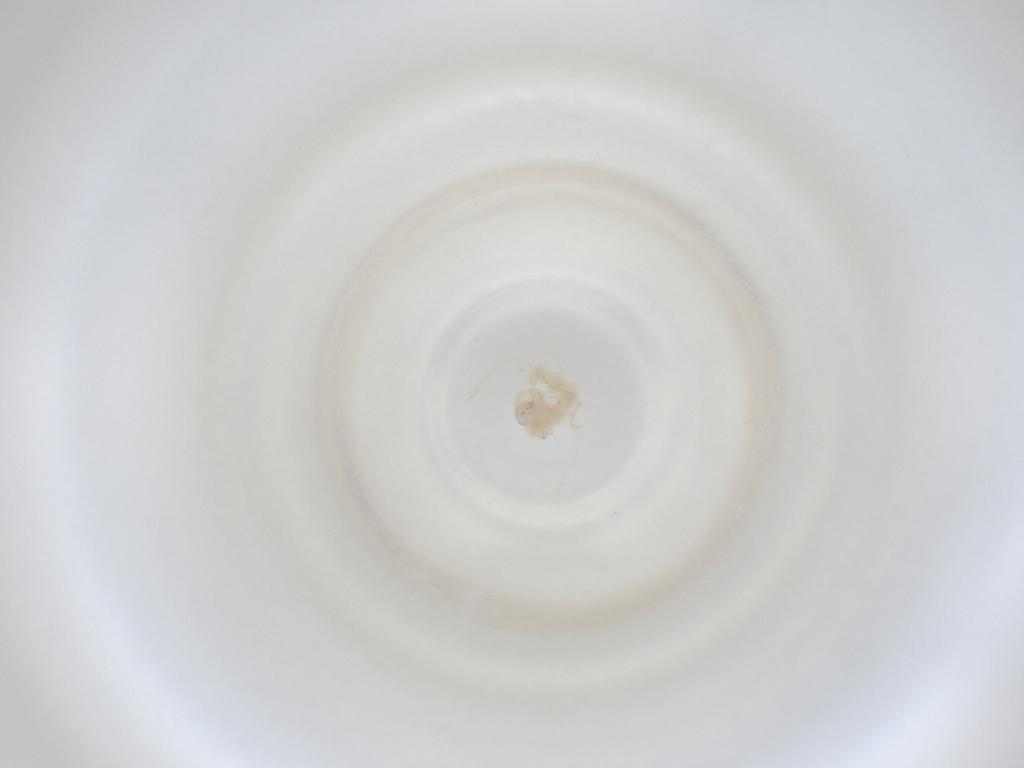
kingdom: Animalia
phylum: Arthropoda
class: Insecta
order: Diptera
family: Cecidomyiidae
